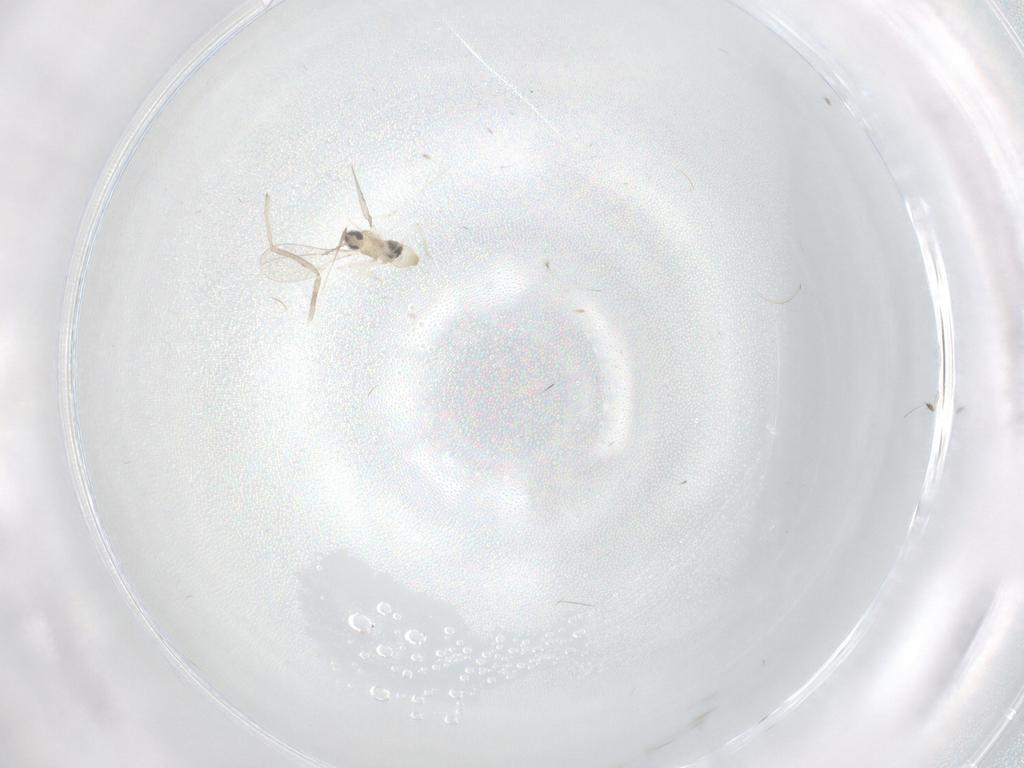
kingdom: Animalia
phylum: Arthropoda
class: Insecta
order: Diptera
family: Cecidomyiidae
